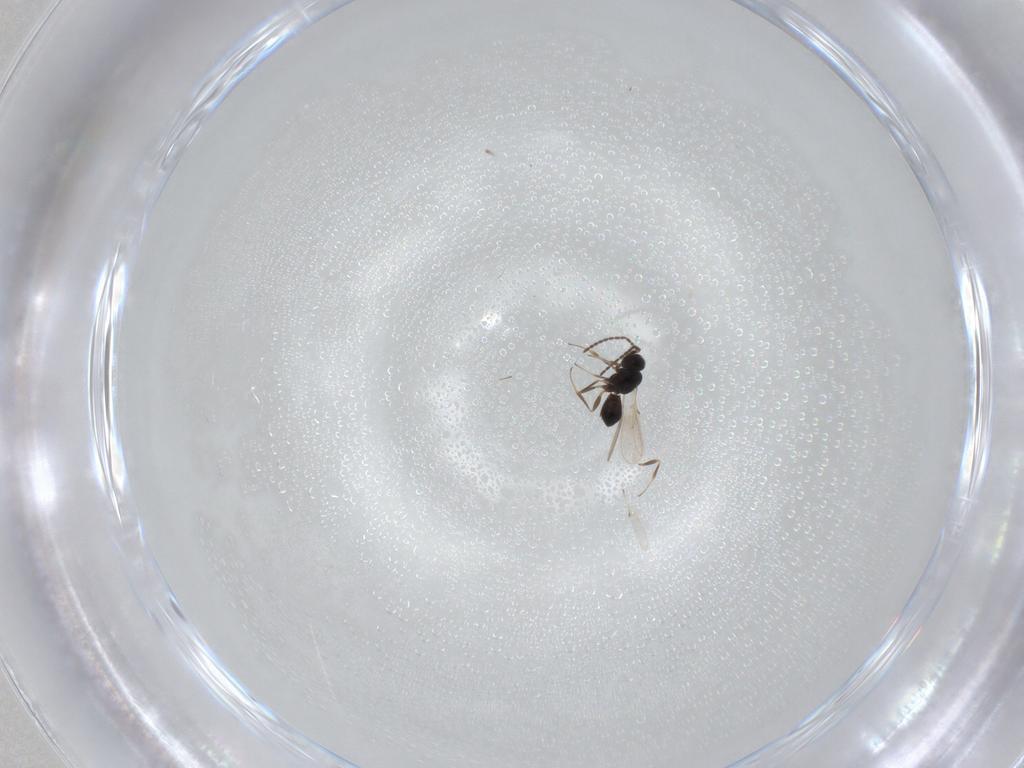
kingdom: Animalia
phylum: Arthropoda
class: Insecta
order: Hymenoptera
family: Scelionidae
